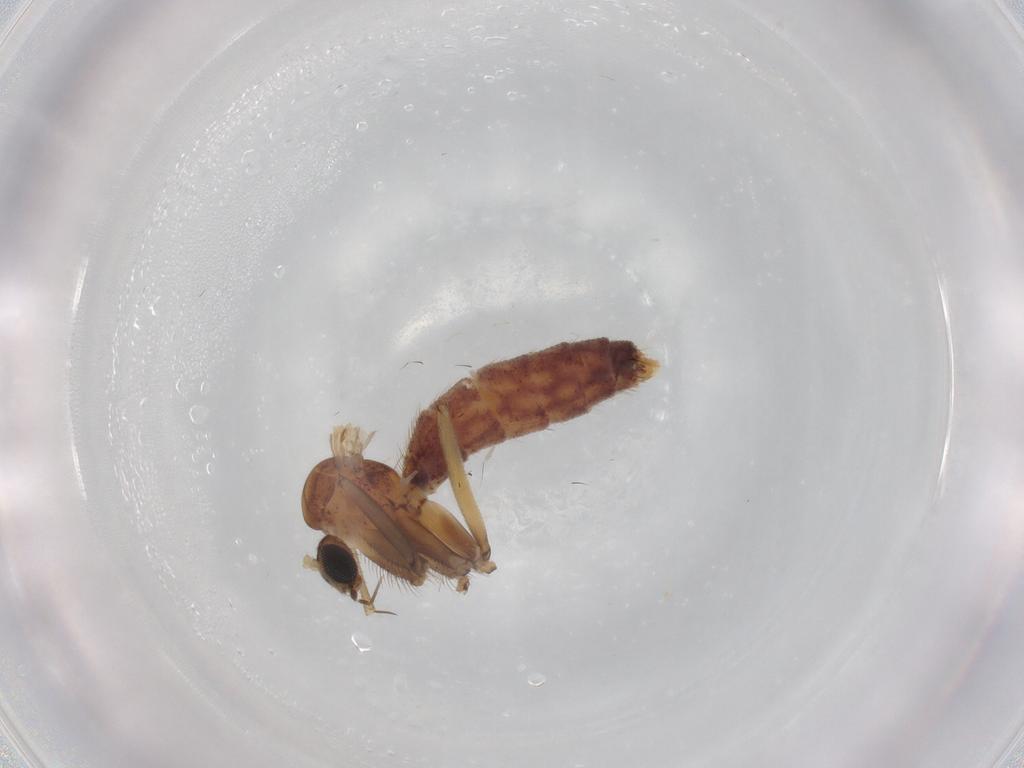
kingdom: Animalia
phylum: Arthropoda
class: Insecta
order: Diptera
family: Mycetophilidae
